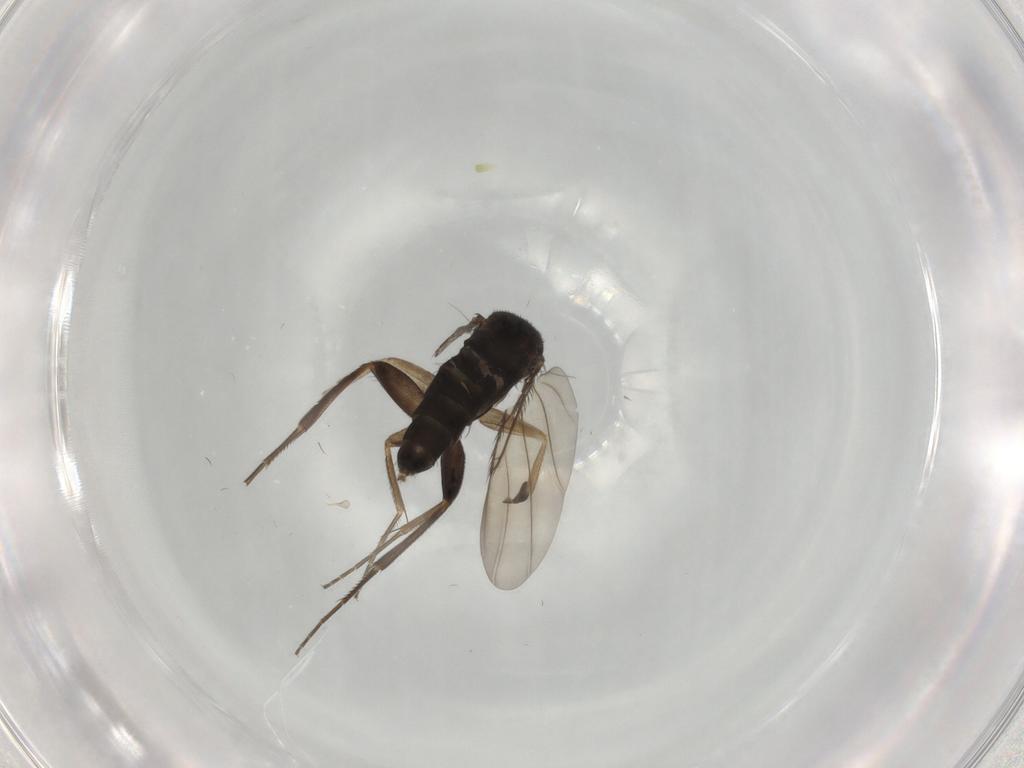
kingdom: Animalia
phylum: Arthropoda
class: Insecta
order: Diptera
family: Phoridae
